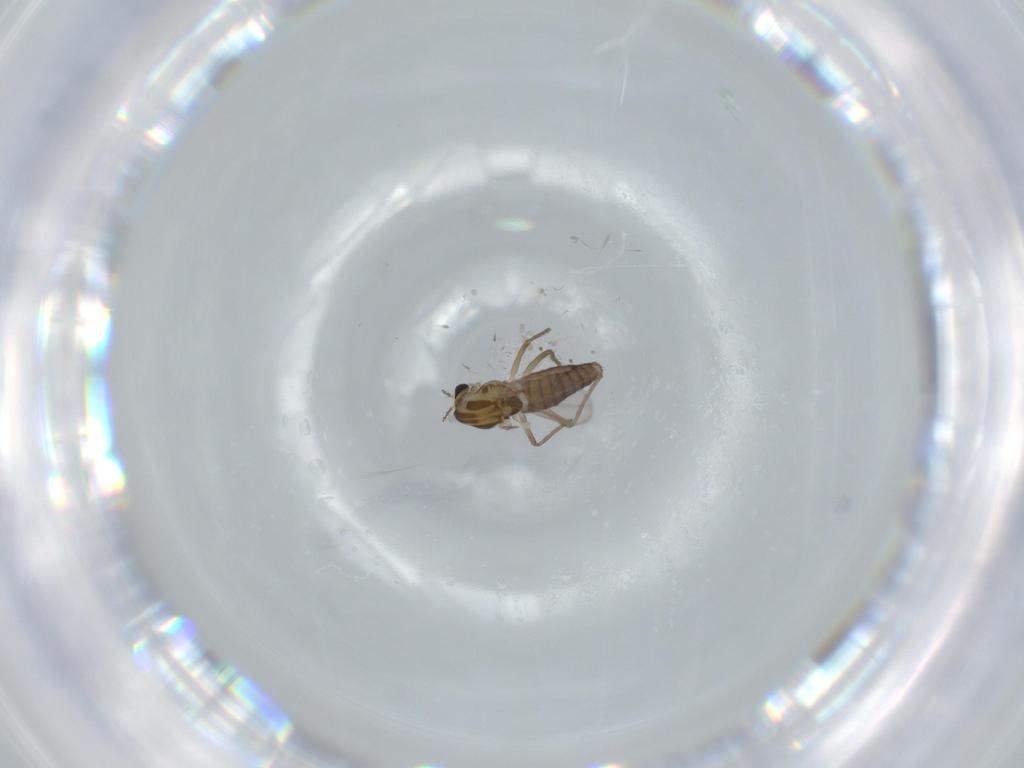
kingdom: Animalia
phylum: Arthropoda
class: Insecta
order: Diptera
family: Chironomidae
